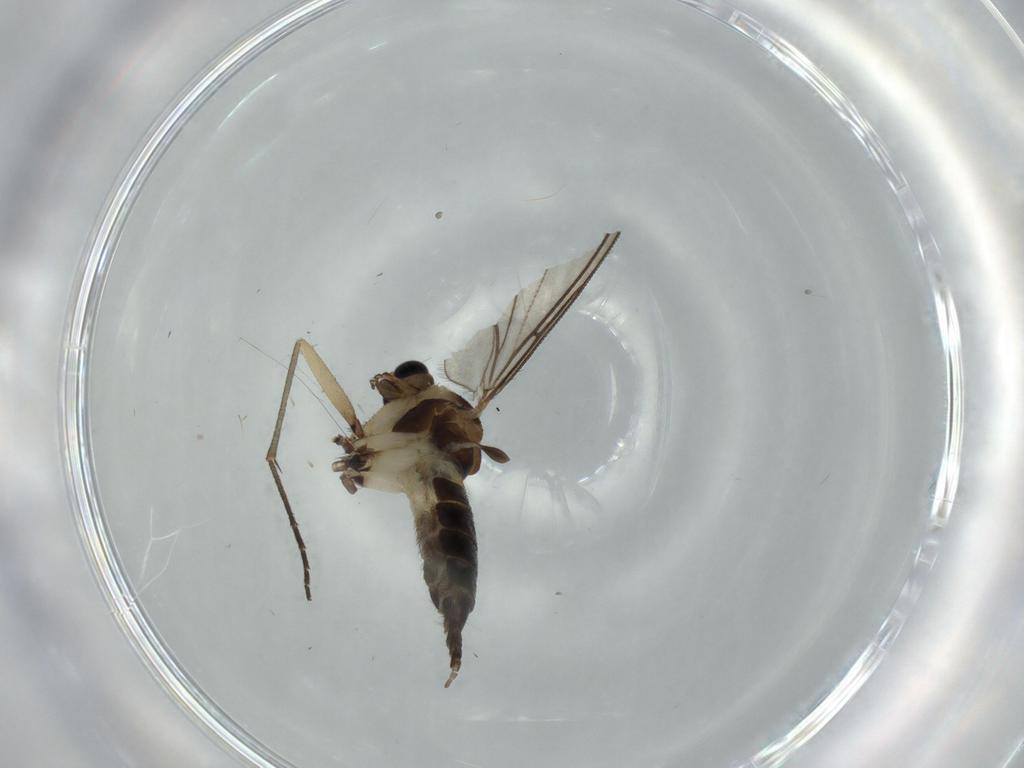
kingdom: Animalia
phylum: Arthropoda
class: Insecta
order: Diptera
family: Sciaridae
